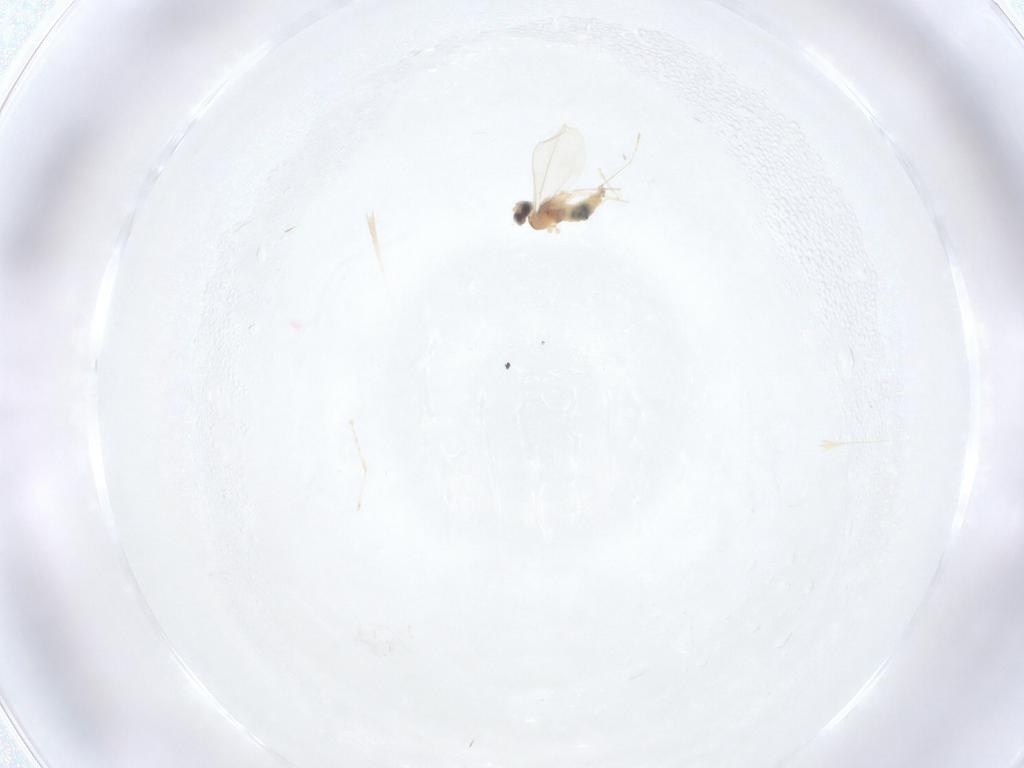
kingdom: Animalia
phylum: Arthropoda
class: Insecta
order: Diptera
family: Cecidomyiidae
